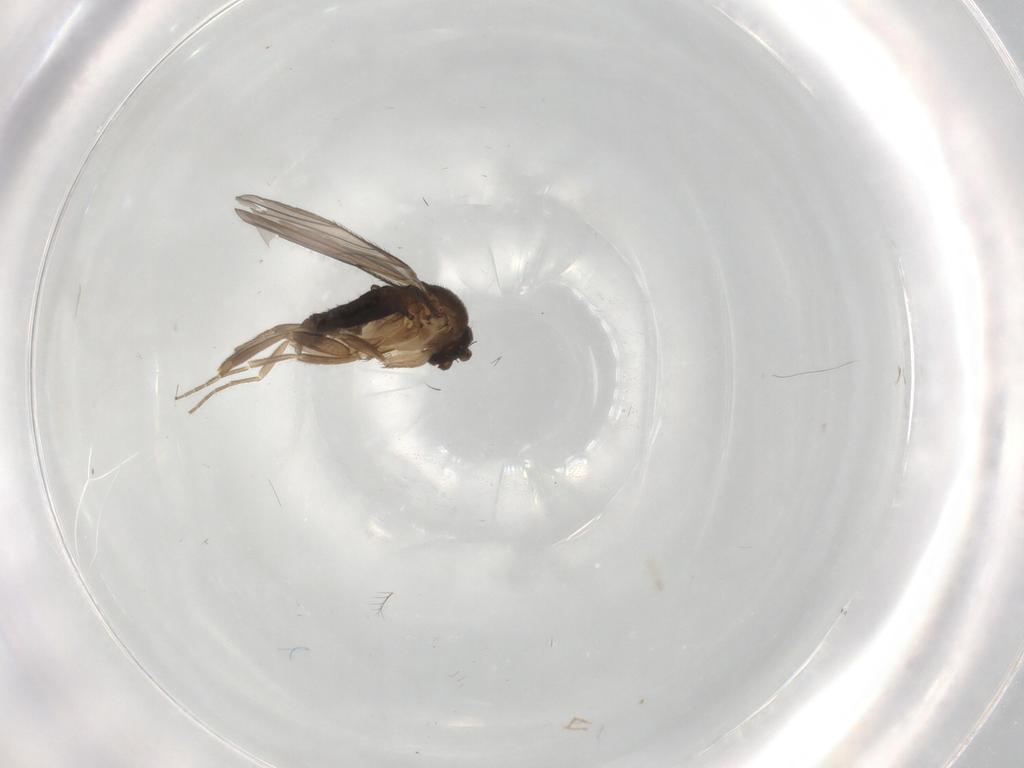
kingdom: Animalia
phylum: Arthropoda
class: Insecta
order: Diptera
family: Phoridae
